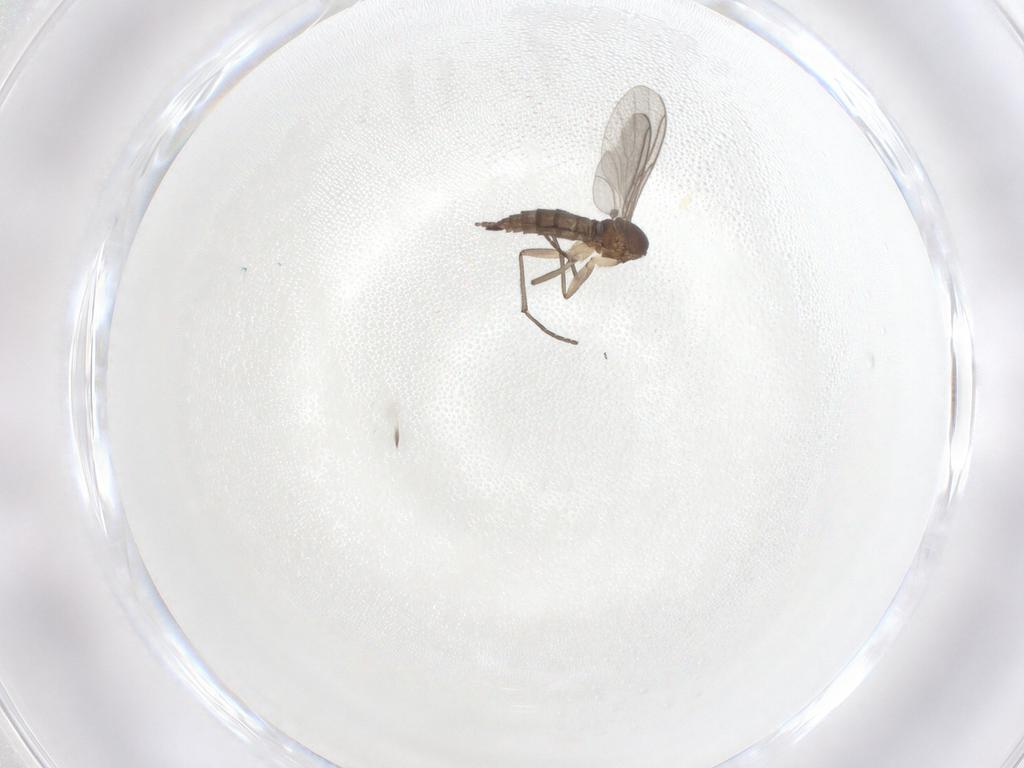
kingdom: Animalia
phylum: Arthropoda
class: Insecta
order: Diptera
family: Sciaridae
